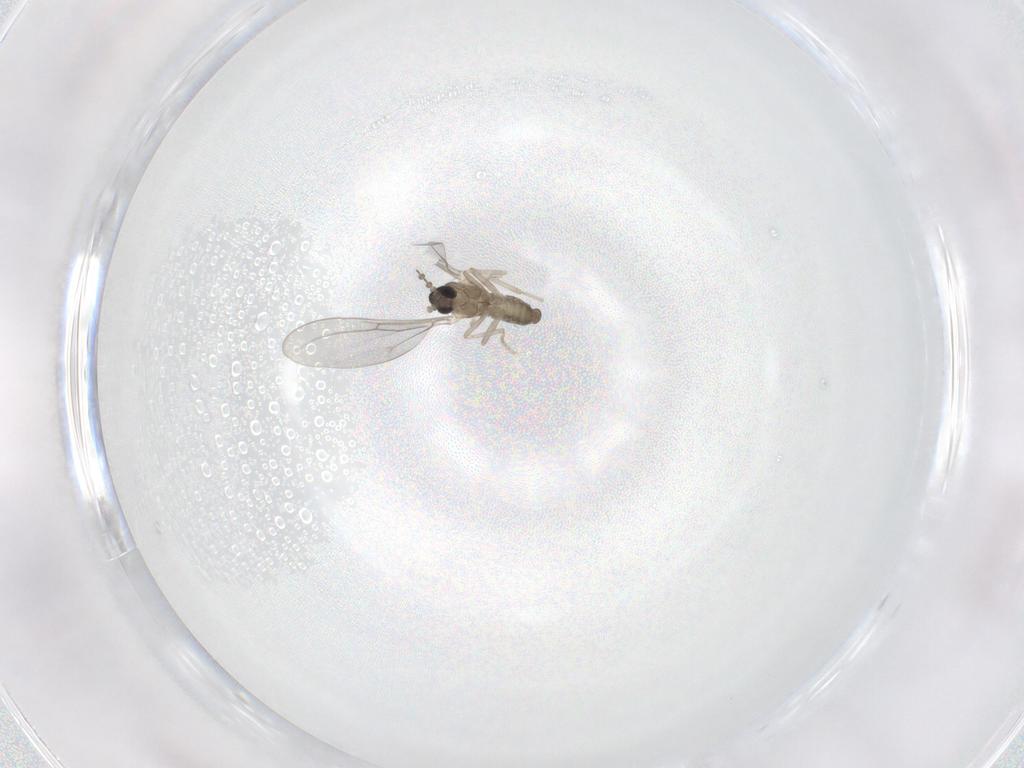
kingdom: Animalia
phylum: Arthropoda
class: Insecta
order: Diptera
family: Cecidomyiidae
